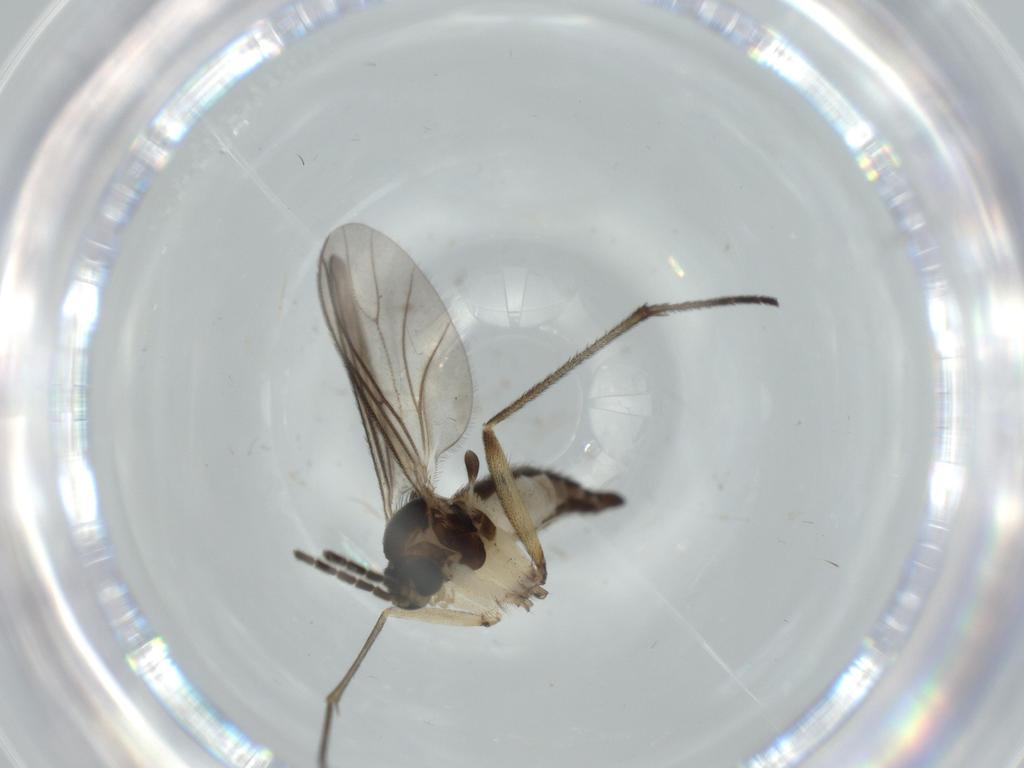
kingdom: Animalia
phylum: Arthropoda
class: Insecta
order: Diptera
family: Sciaridae
